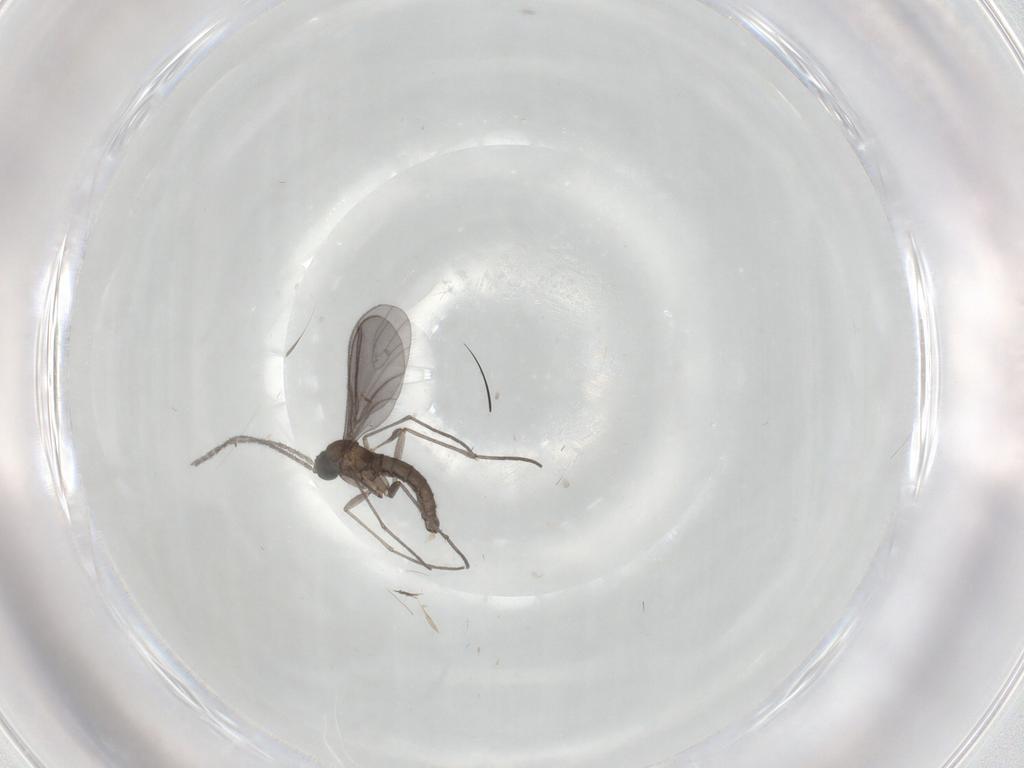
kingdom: Animalia
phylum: Arthropoda
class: Insecta
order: Diptera
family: Sciaridae
